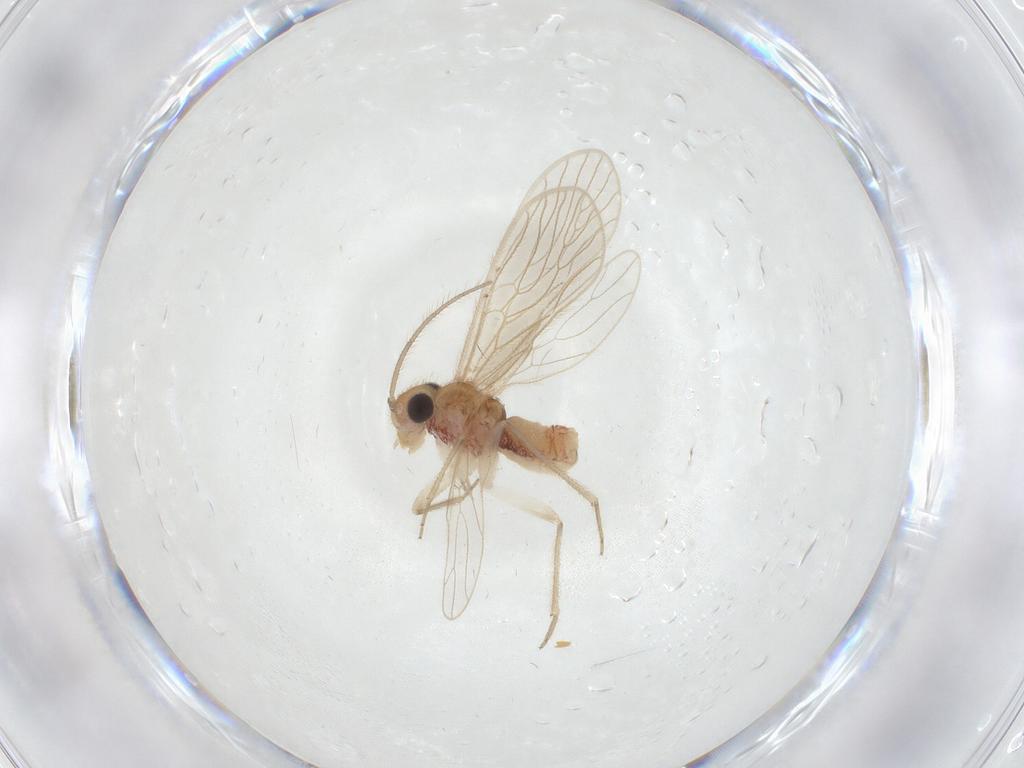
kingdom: Animalia
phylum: Arthropoda
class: Insecta
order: Psocodea
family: Cladiopsocidae
